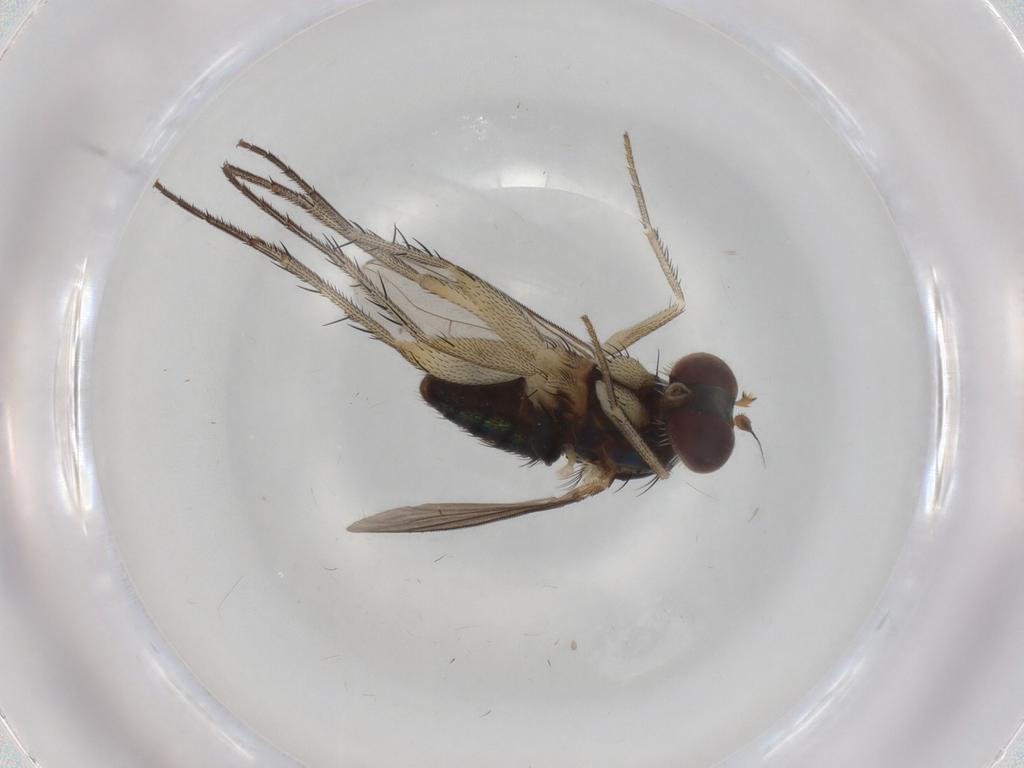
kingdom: Animalia
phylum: Arthropoda
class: Insecta
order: Diptera
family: Dolichopodidae
